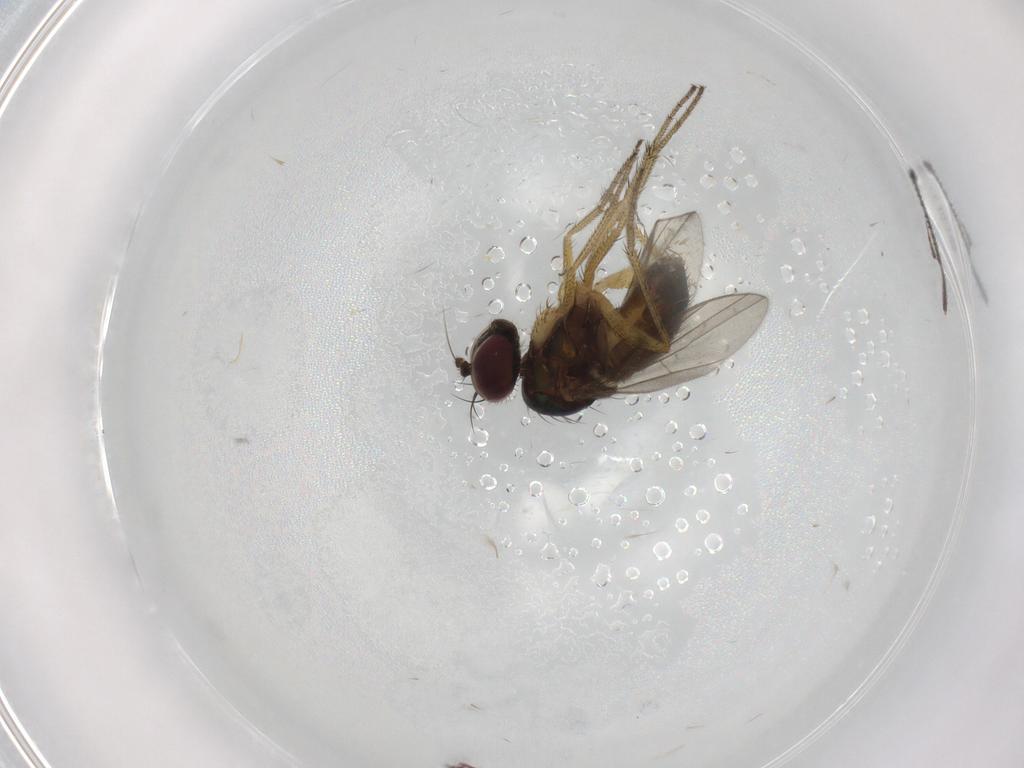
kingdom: Animalia
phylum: Arthropoda
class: Insecta
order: Diptera
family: Chironomidae
